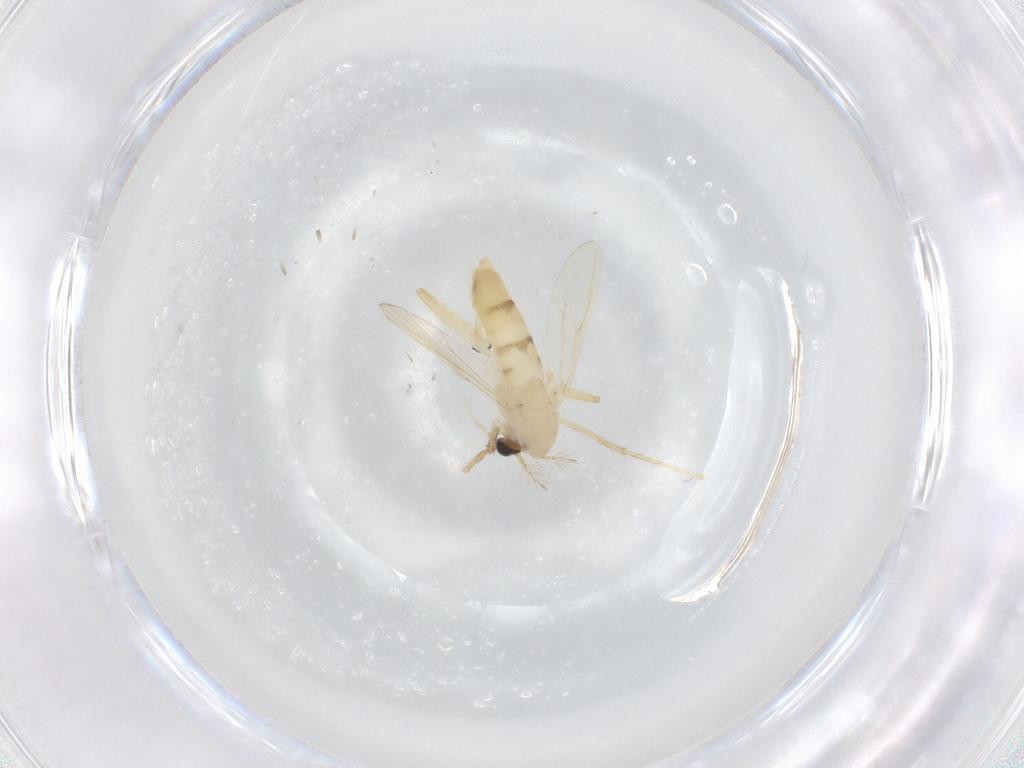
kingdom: Animalia
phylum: Arthropoda
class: Insecta
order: Diptera
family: Chironomidae
